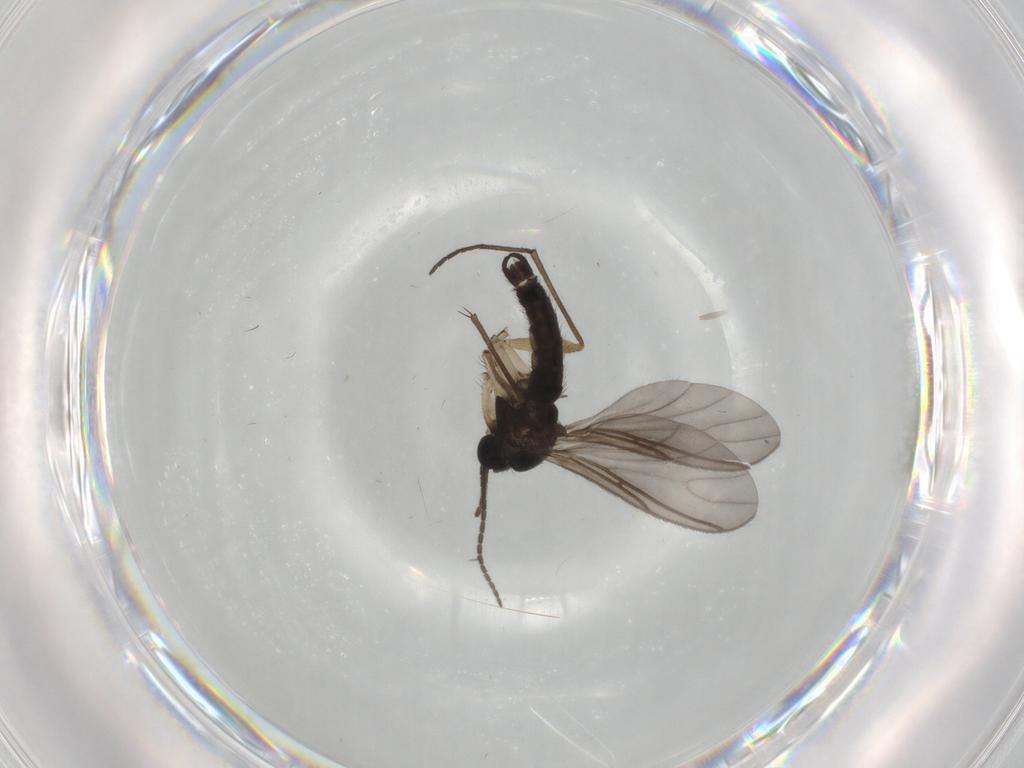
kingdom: Animalia
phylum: Arthropoda
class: Insecta
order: Diptera
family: Sciaridae
